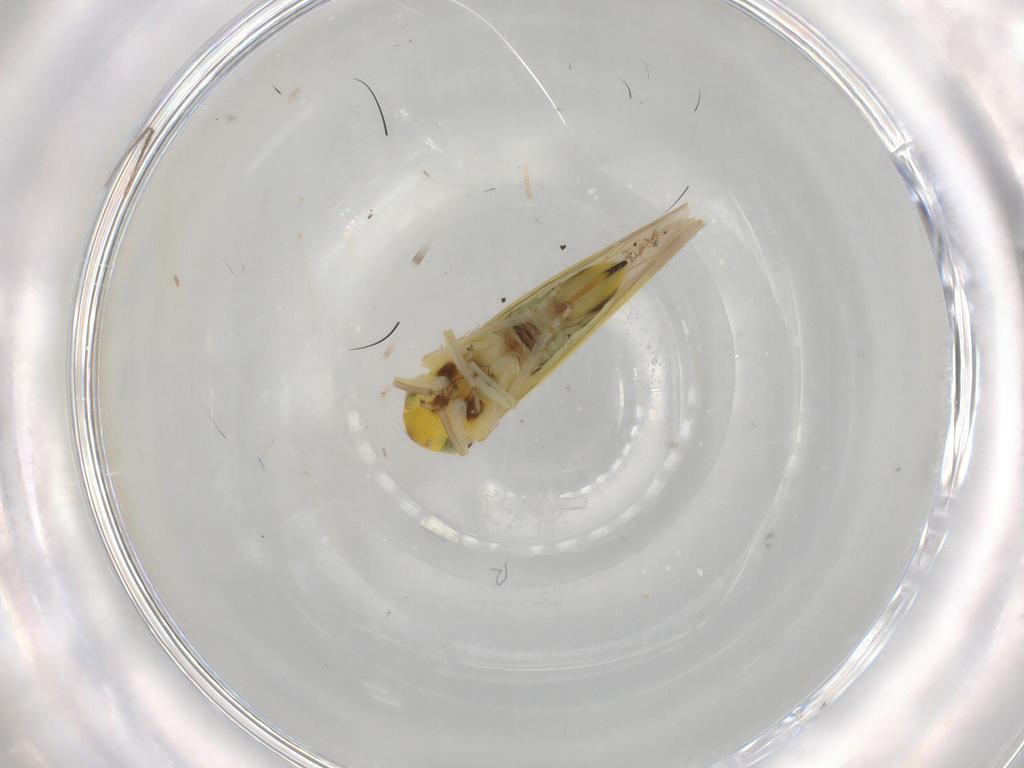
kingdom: Animalia
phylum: Arthropoda
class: Insecta
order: Hemiptera
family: Cicadellidae
